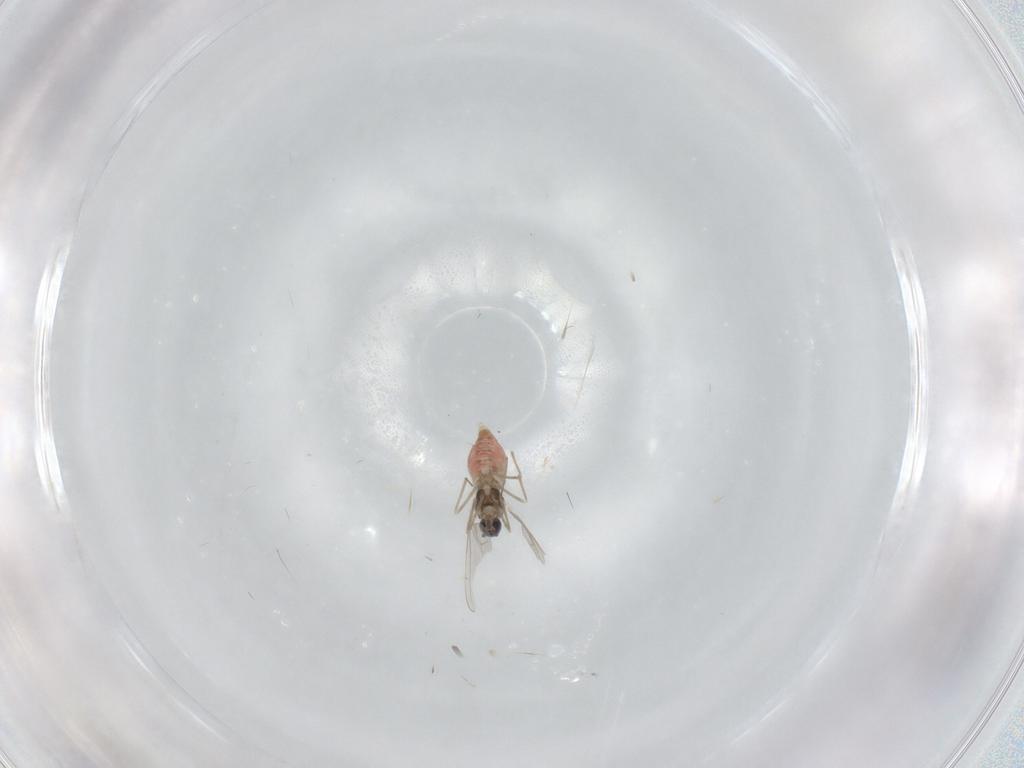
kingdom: Animalia
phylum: Arthropoda
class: Insecta
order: Diptera
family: Cecidomyiidae
